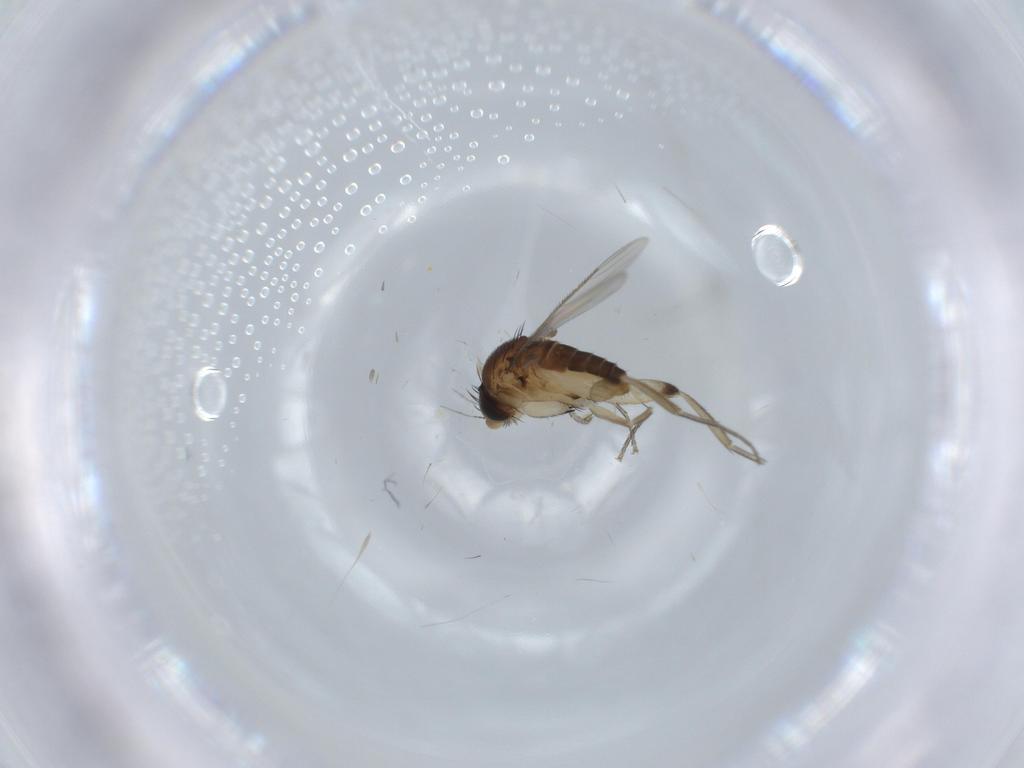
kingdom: Animalia
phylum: Arthropoda
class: Insecta
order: Diptera
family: Phoridae
